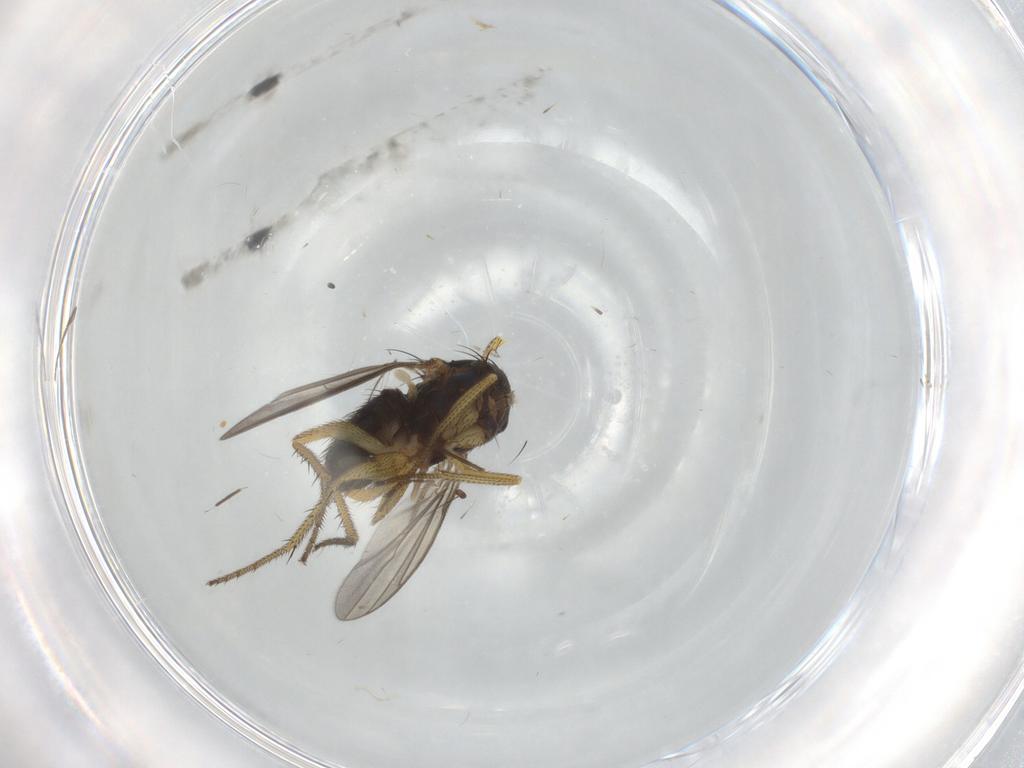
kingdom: Animalia
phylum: Arthropoda
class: Insecta
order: Diptera
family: Dolichopodidae
